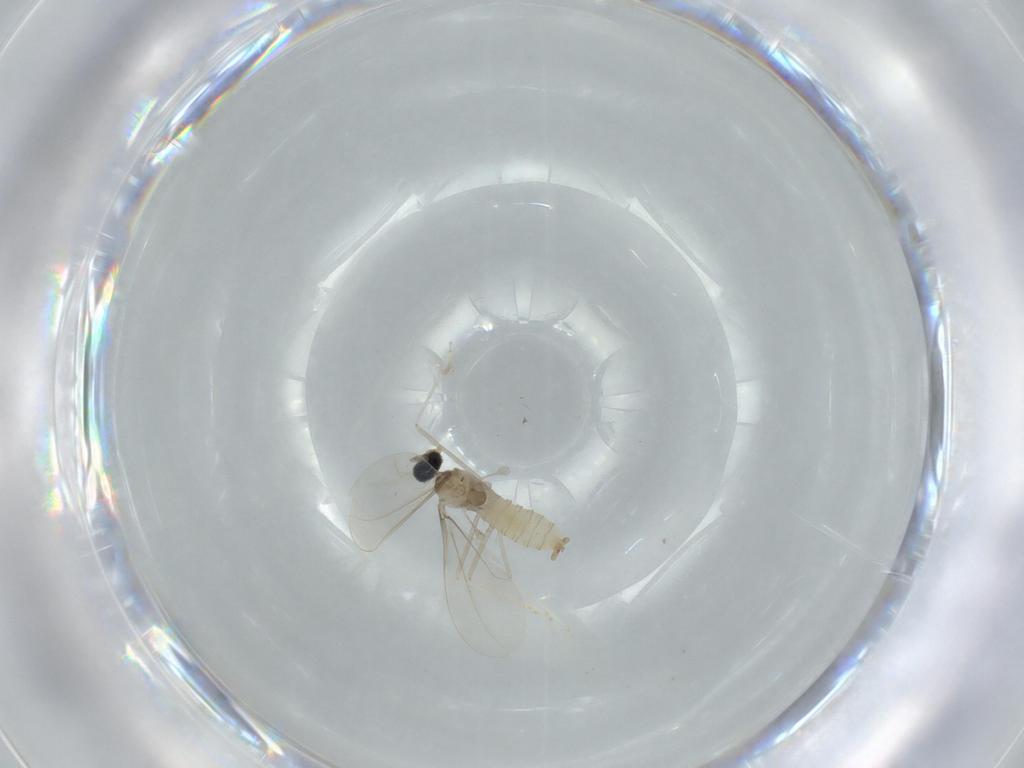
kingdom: Animalia
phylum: Arthropoda
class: Insecta
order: Diptera
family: Cecidomyiidae
